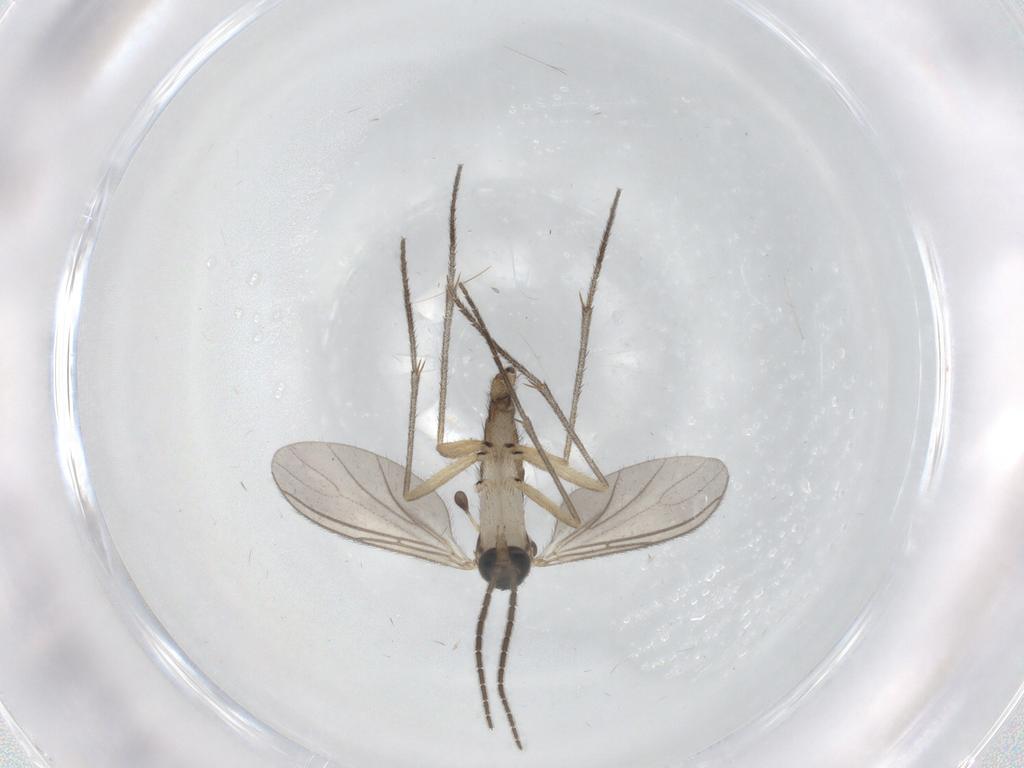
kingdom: Animalia
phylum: Arthropoda
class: Insecta
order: Diptera
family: Sciaridae
